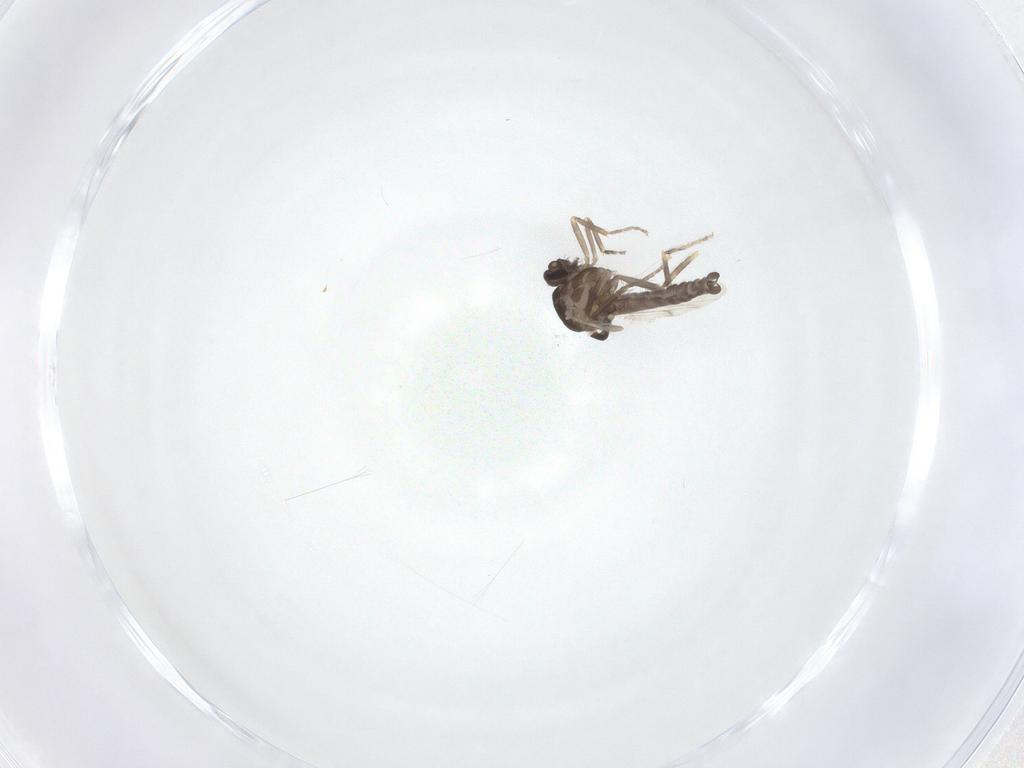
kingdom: Animalia
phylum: Arthropoda
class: Insecta
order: Diptera
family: Ceratopogonidae
